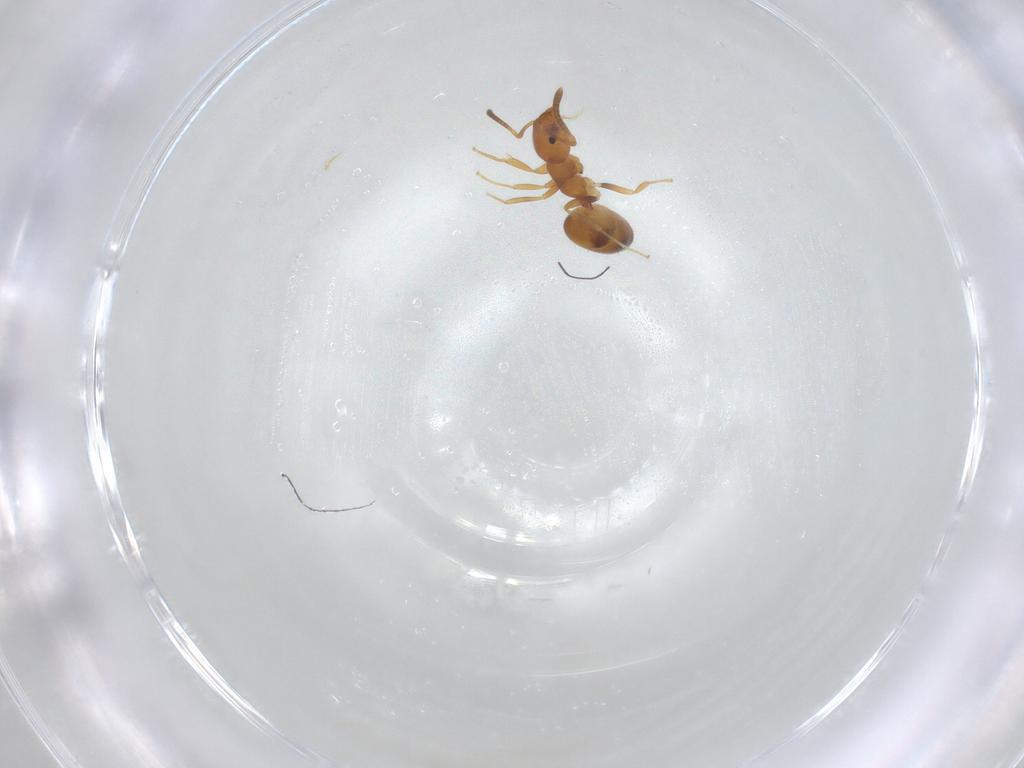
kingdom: Animalia
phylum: Arthropoda
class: Insecta
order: Hymenoptera
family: Formicidae
